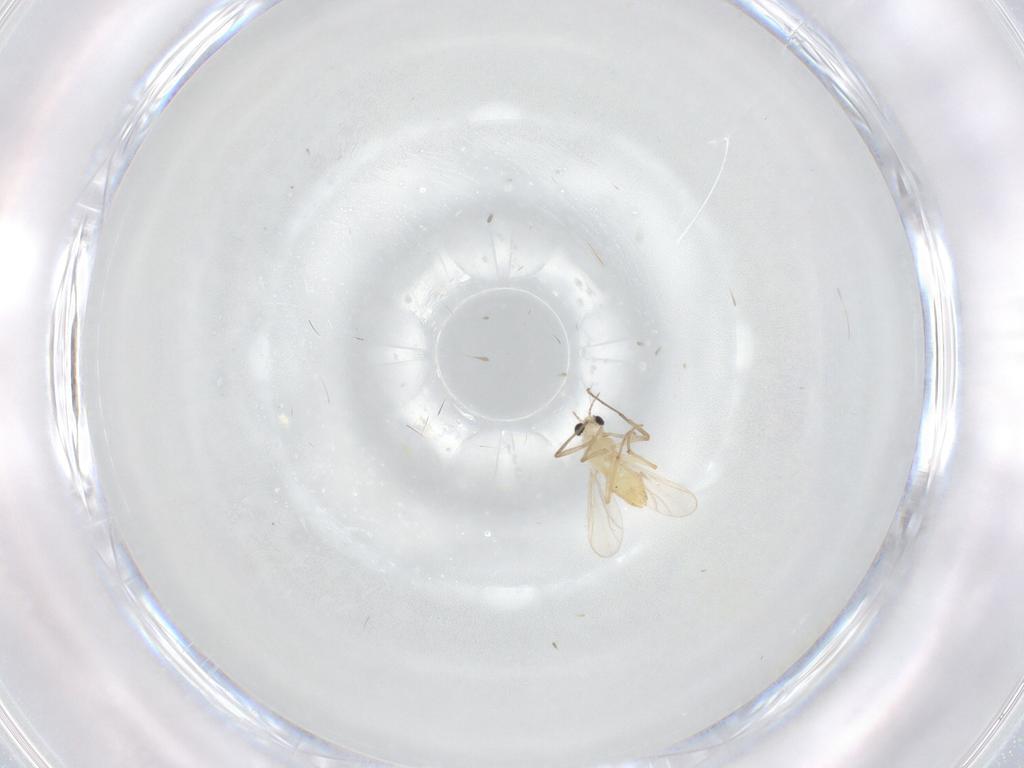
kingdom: Animalia
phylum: Arthropoda
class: Insecta
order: Diptera
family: Chironomidae
